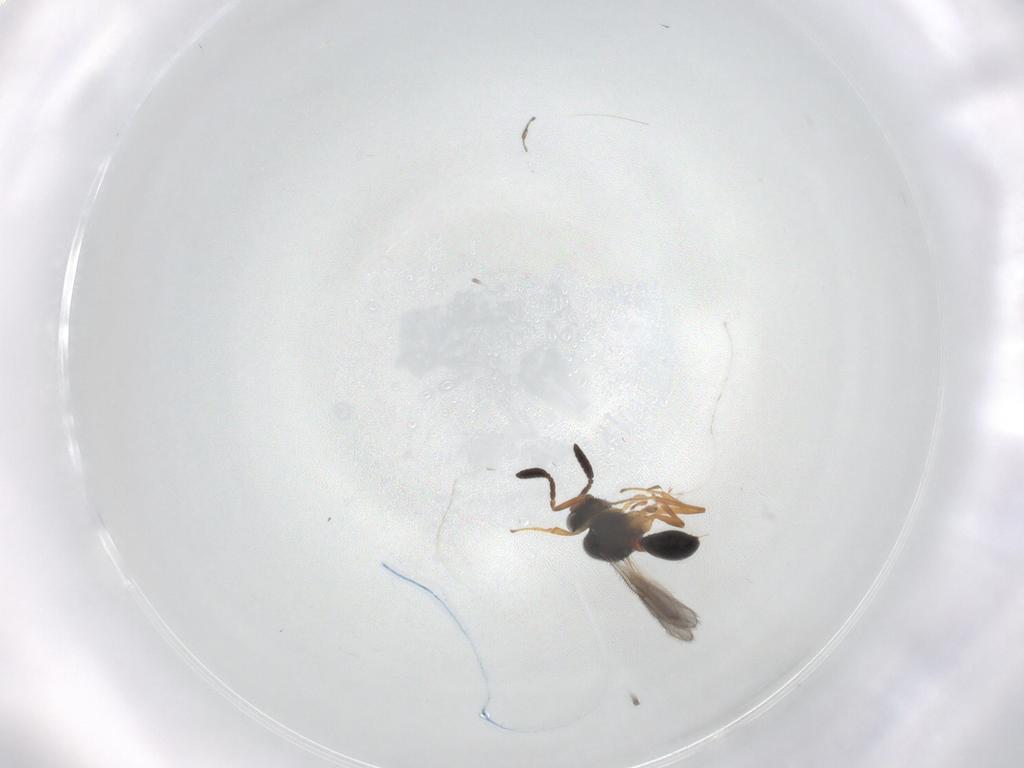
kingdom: Animalia
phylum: Arthropoda
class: Insecta
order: Hymenoptera
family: Scelionidae
